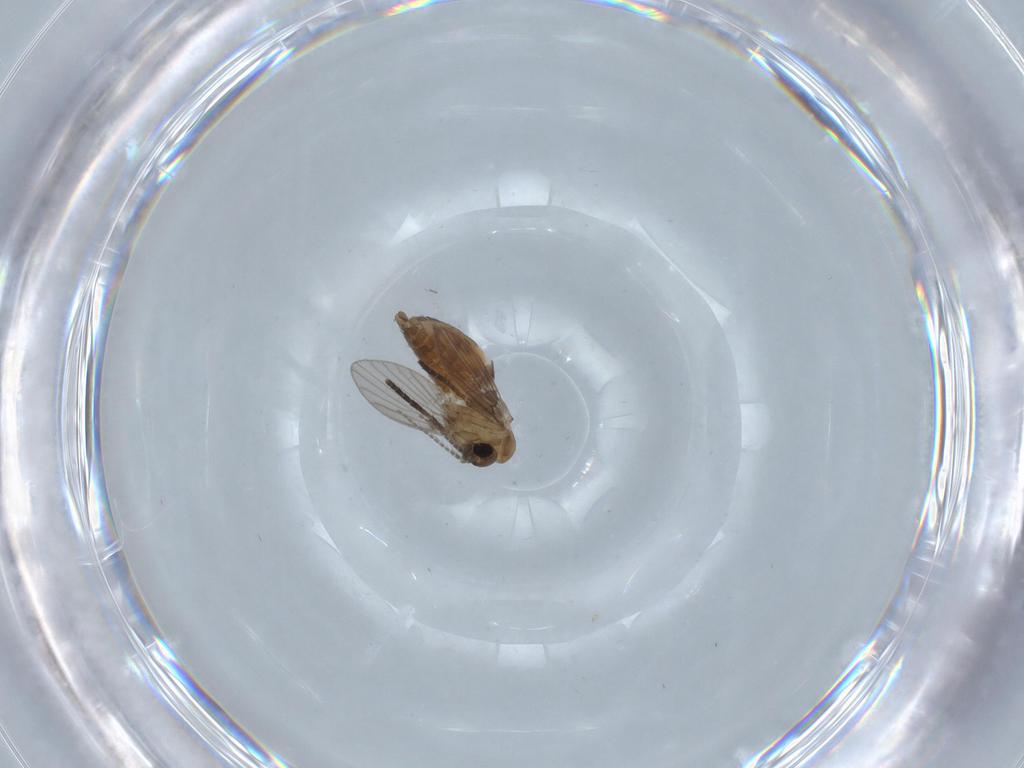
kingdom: Animalia
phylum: Arthropoda
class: Insecta
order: Diptera
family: Psychodidae
